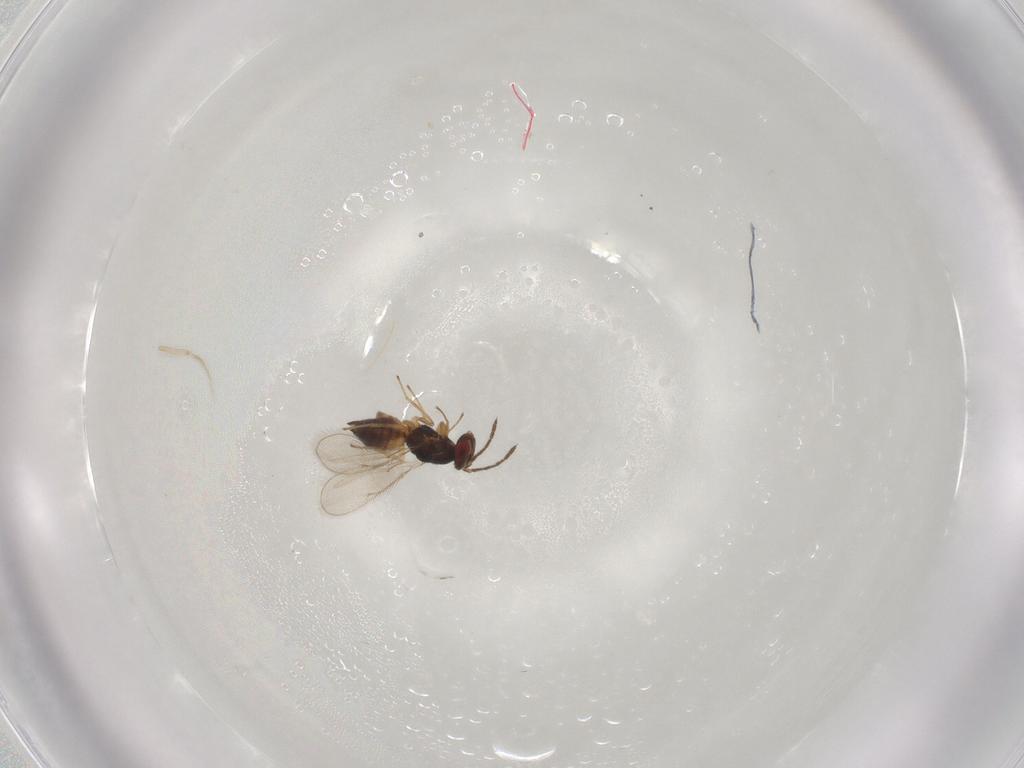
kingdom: Animalia
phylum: Arthropoda
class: Insecta
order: Hymenoptera
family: Eulophidae
